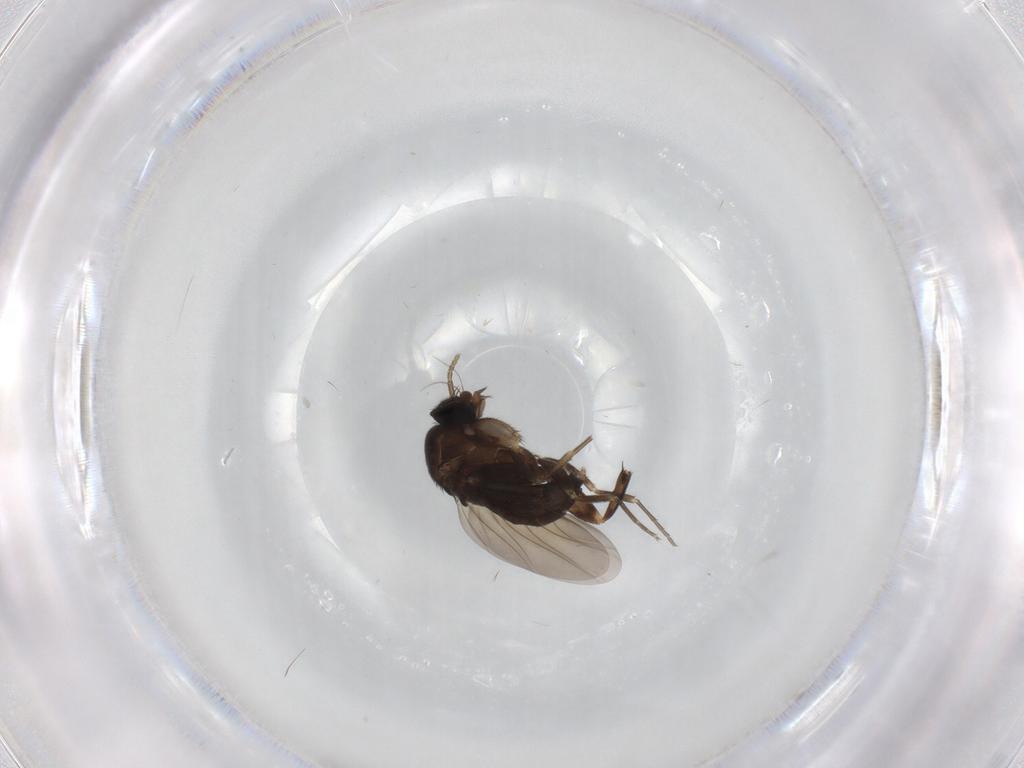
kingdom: Animalia
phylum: Arthropoda
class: Insecta
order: Diptera
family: Phoridae
